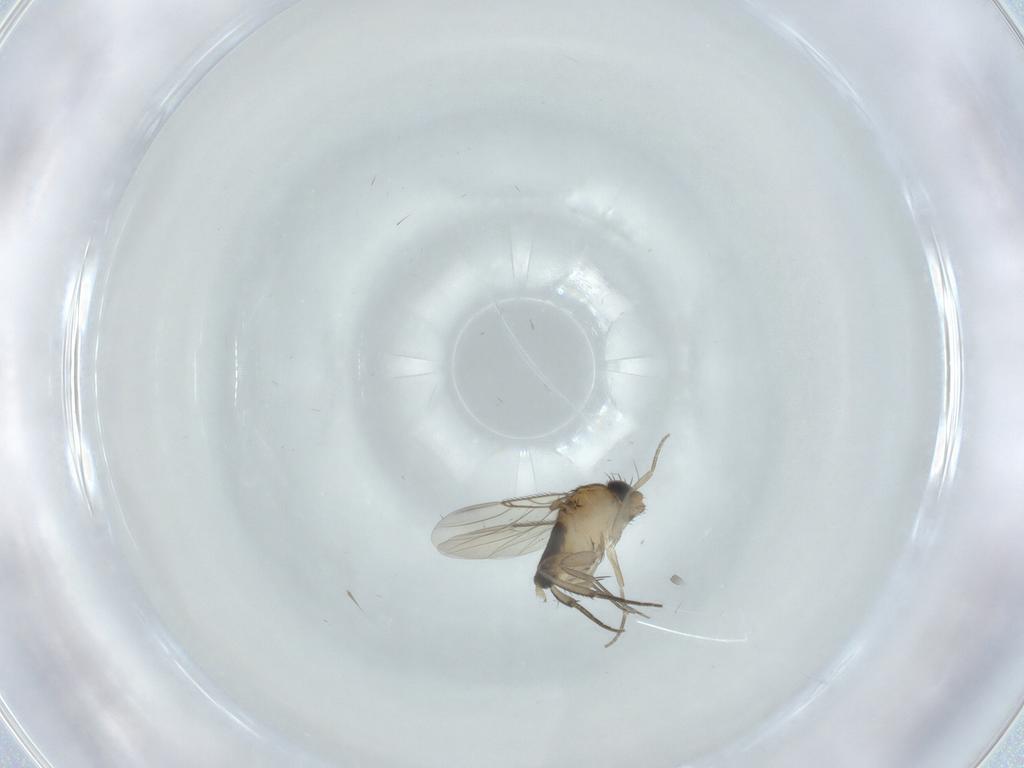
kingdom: Animalia
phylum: Arthropoda
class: Insecta
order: Diptera
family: Phoridae
